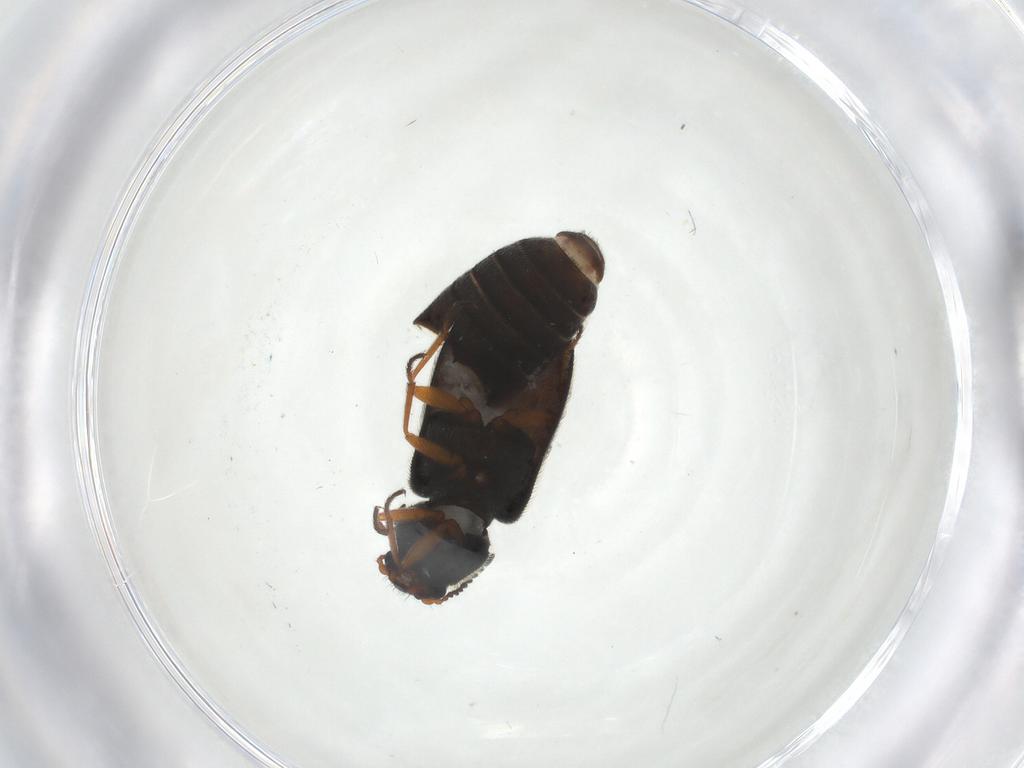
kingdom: Animalia
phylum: Arthropoda
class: Insecta
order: Coleoptera
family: Melyridae
